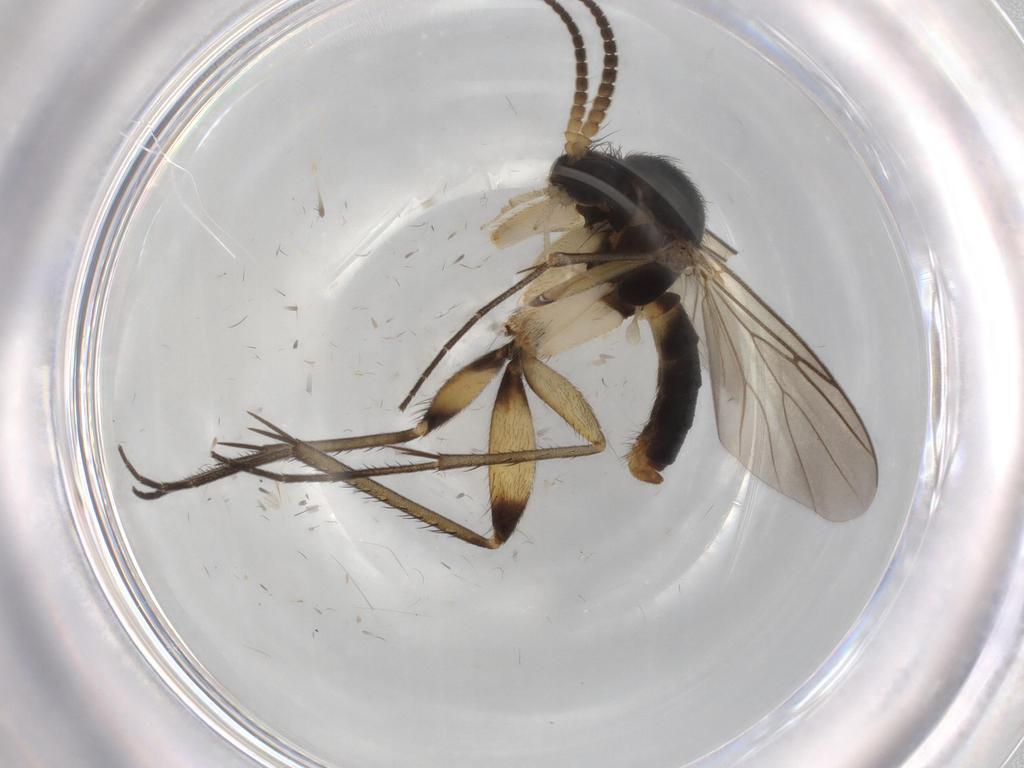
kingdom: Animalia
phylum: Arthropoda
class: Insecta
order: Diptera
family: Mycetophilidae
